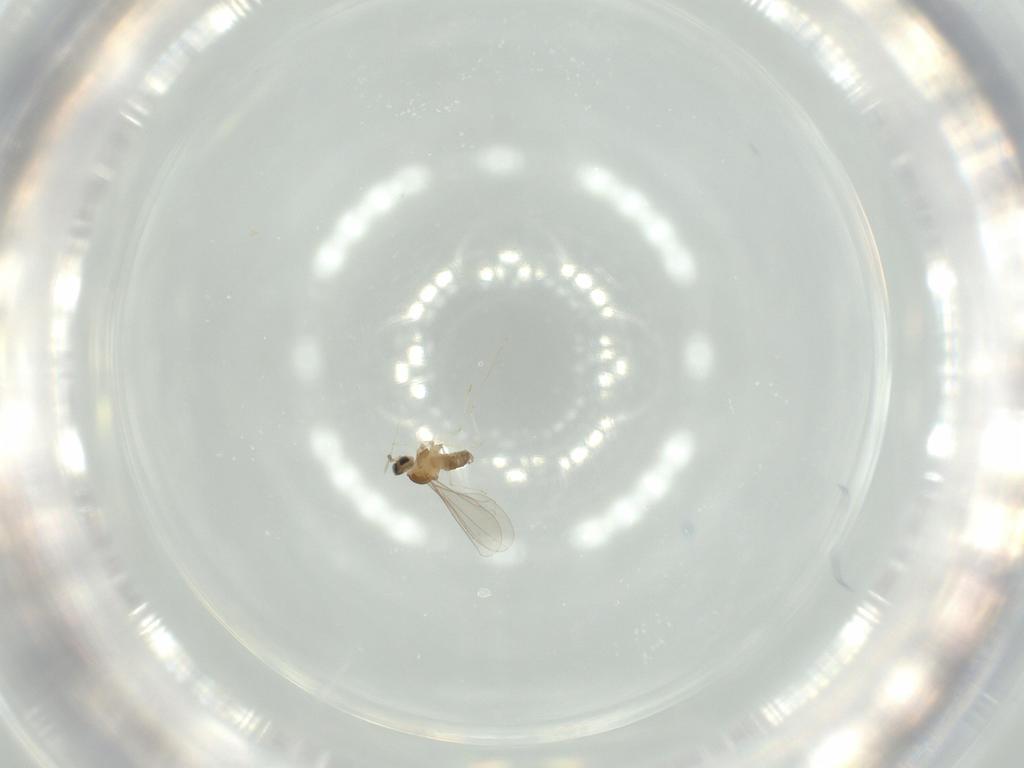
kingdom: Animalia
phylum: Arthropoda
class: Insecta
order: Diptera
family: Cecidomyiidae
